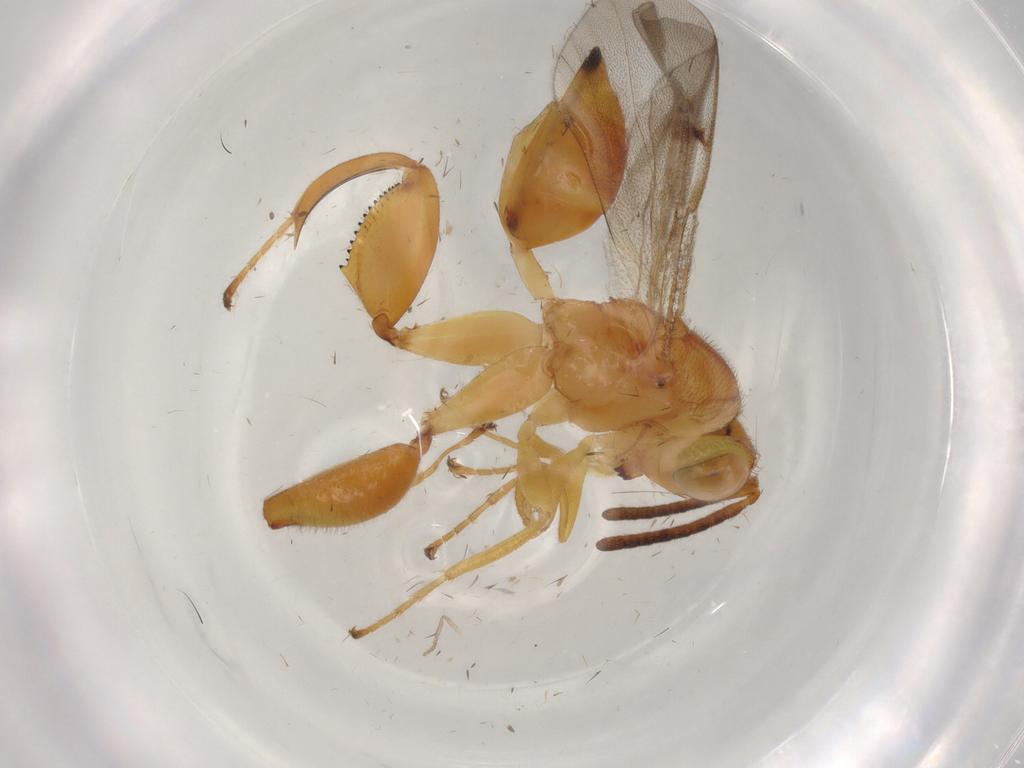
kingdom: Animalia
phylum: Arthropoda
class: Insecta
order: Hymenoptera
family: Chalcididae
